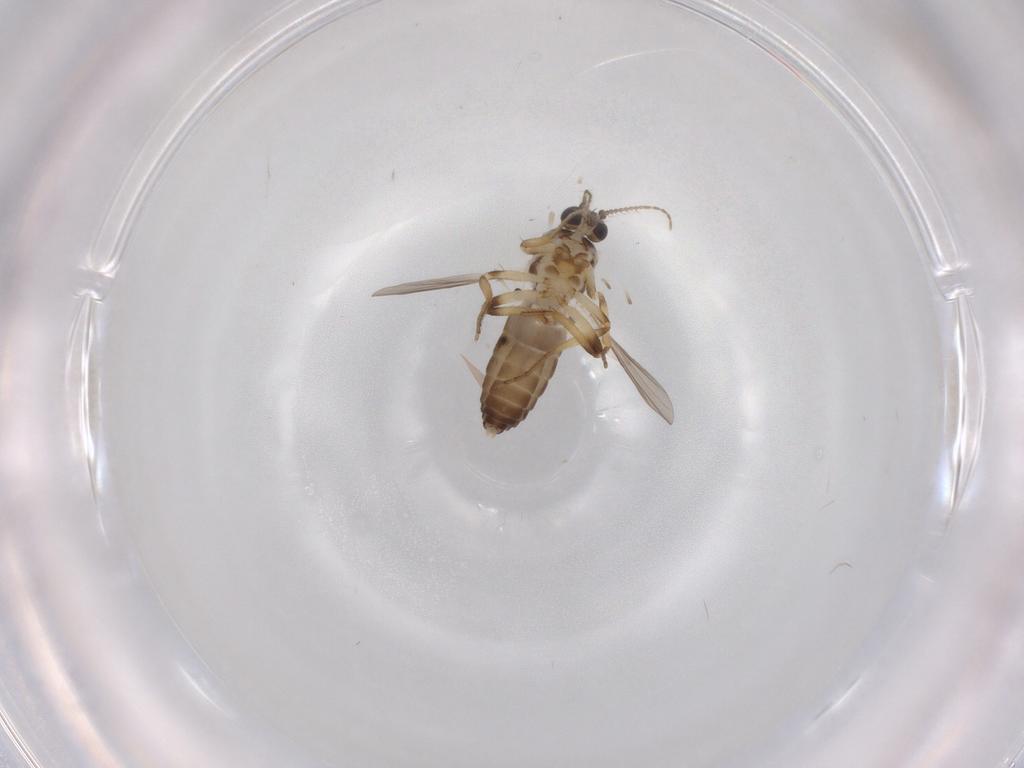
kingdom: Animalia
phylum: Arthropoda
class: Insecta
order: Diptera
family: Ceratopogonidae
